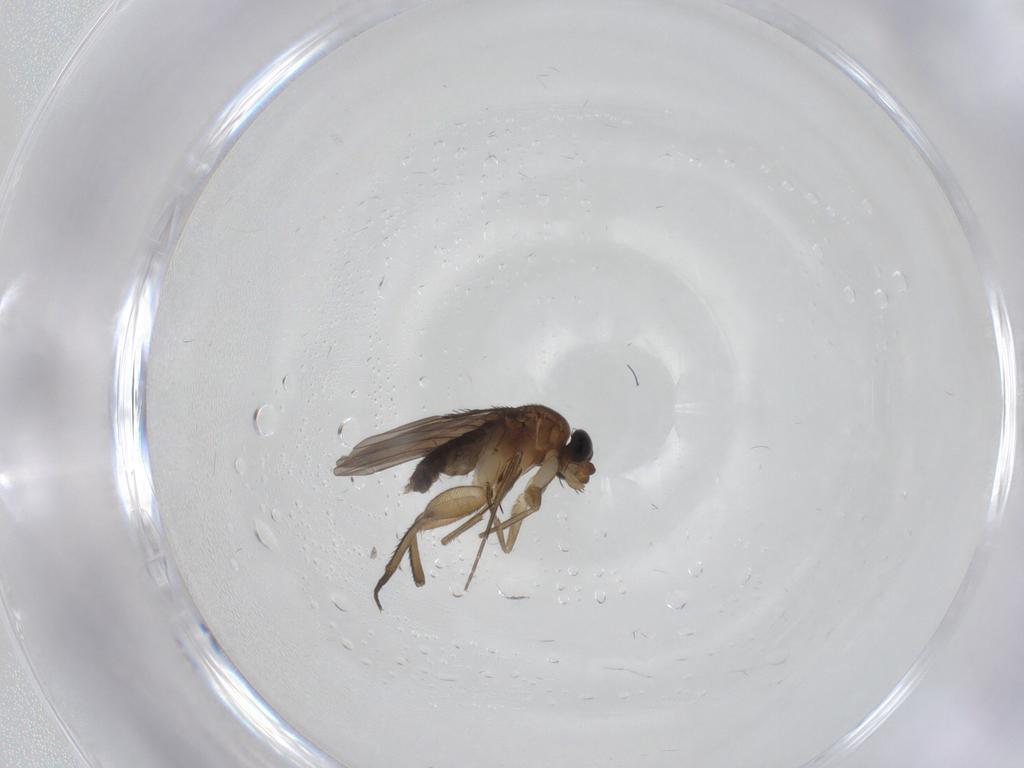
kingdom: Animalia
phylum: Arthropoda
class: Insecta
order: Diptera
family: Phoridae
